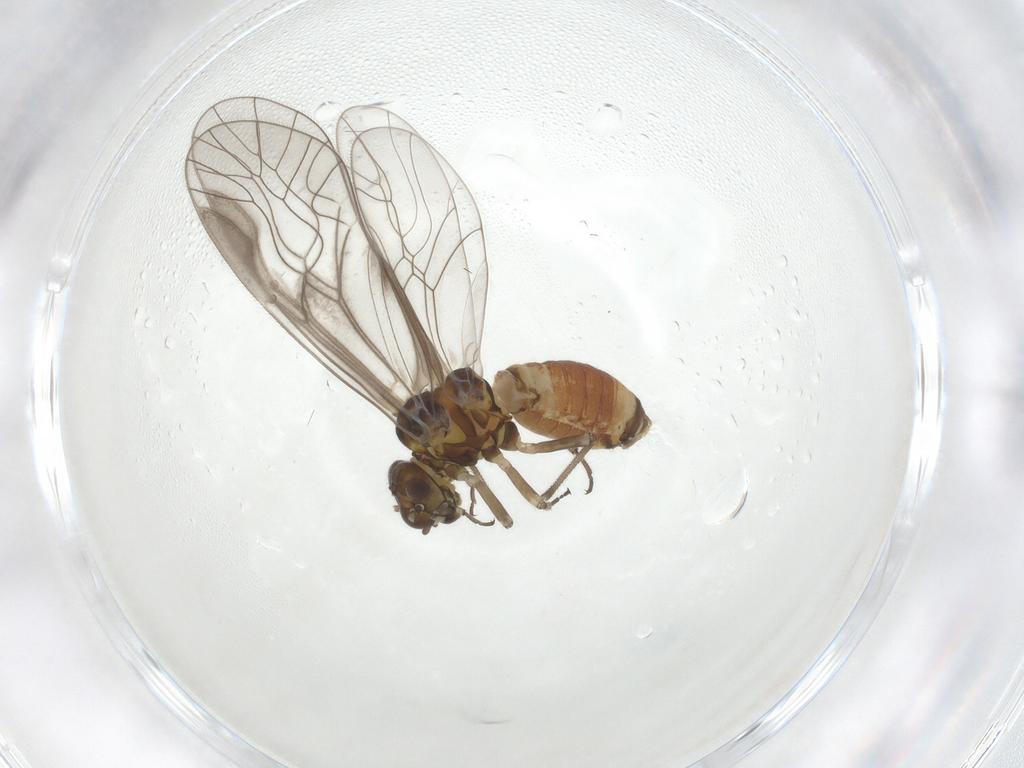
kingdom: Animalia
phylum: Arthropoda
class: Insecta
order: Psocodea
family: Elipsocidae
